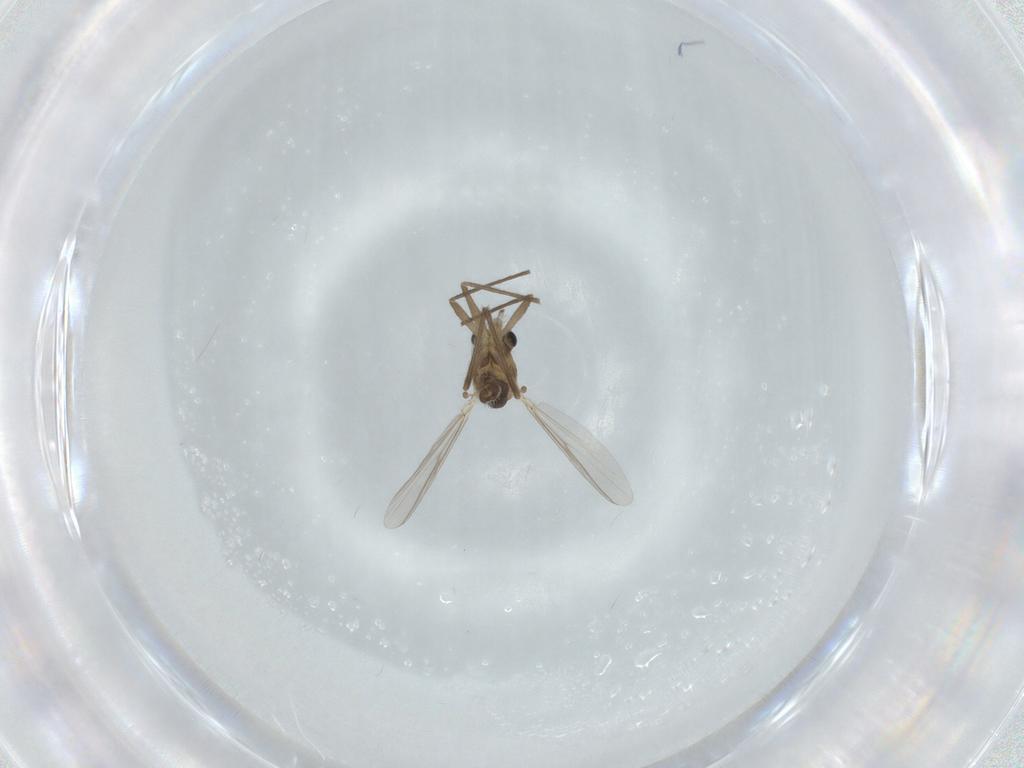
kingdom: Animalia
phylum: Arthropoda
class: Insecta
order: Diptera
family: Chironomidae
